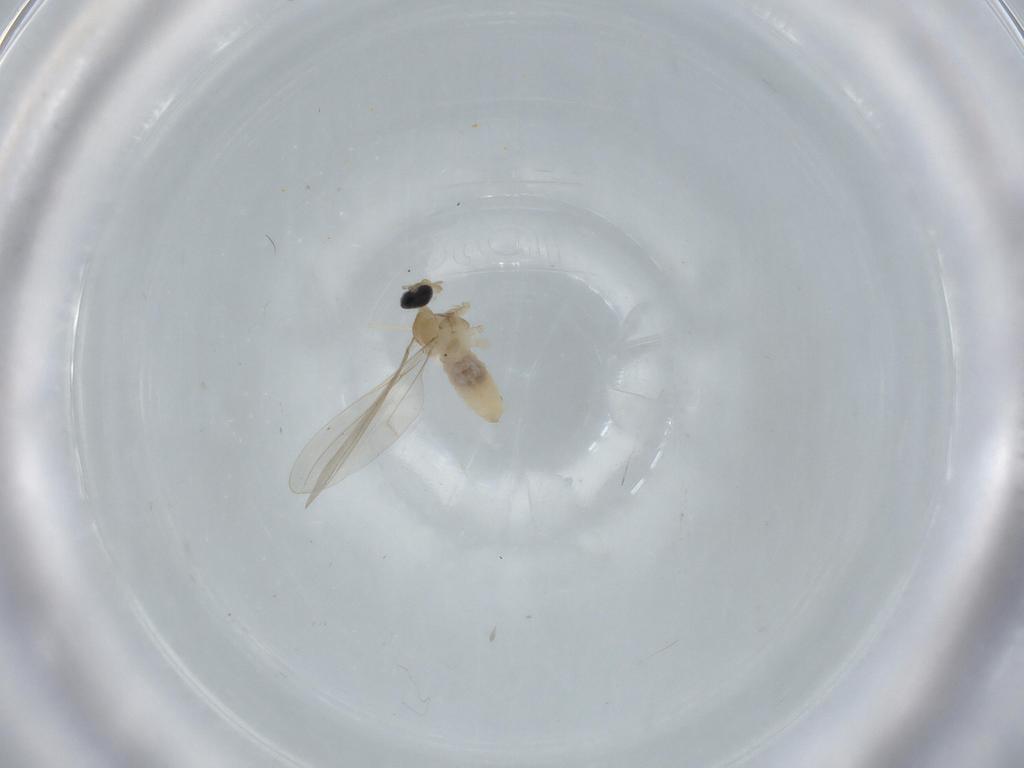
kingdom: Animalia
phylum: Arthropoda
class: Insecta
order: Diptera
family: Cecidomyiidae
